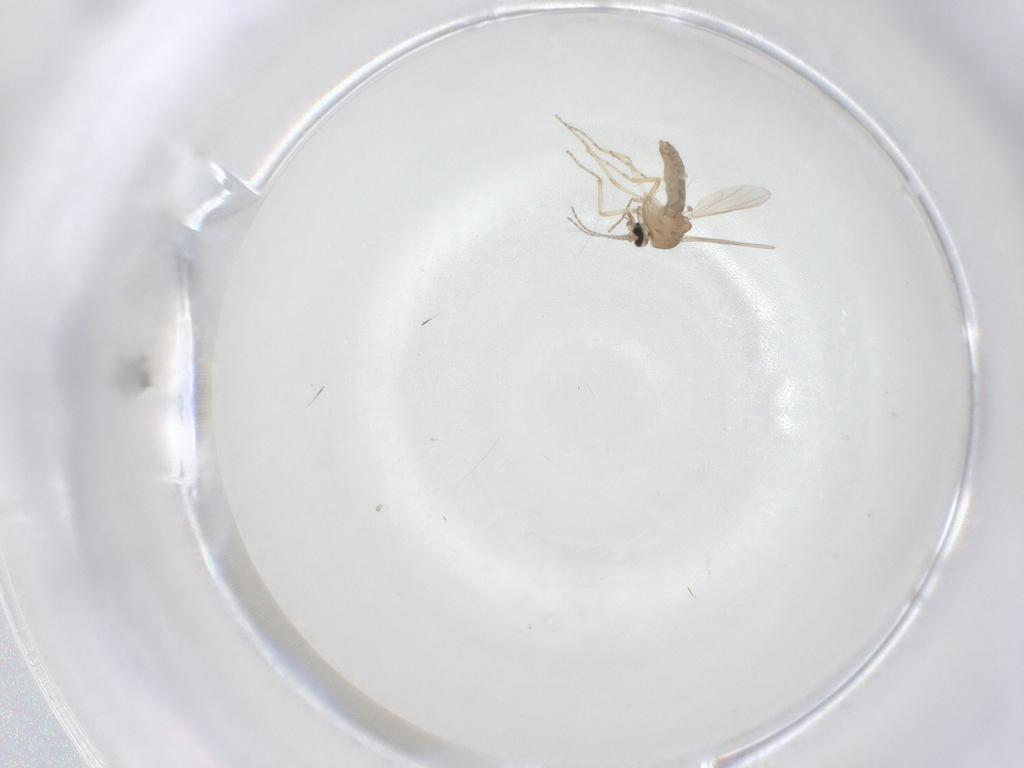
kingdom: Animalia
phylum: Arthropoda
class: Insecta
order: Diptera
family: Ceratopogonidae
